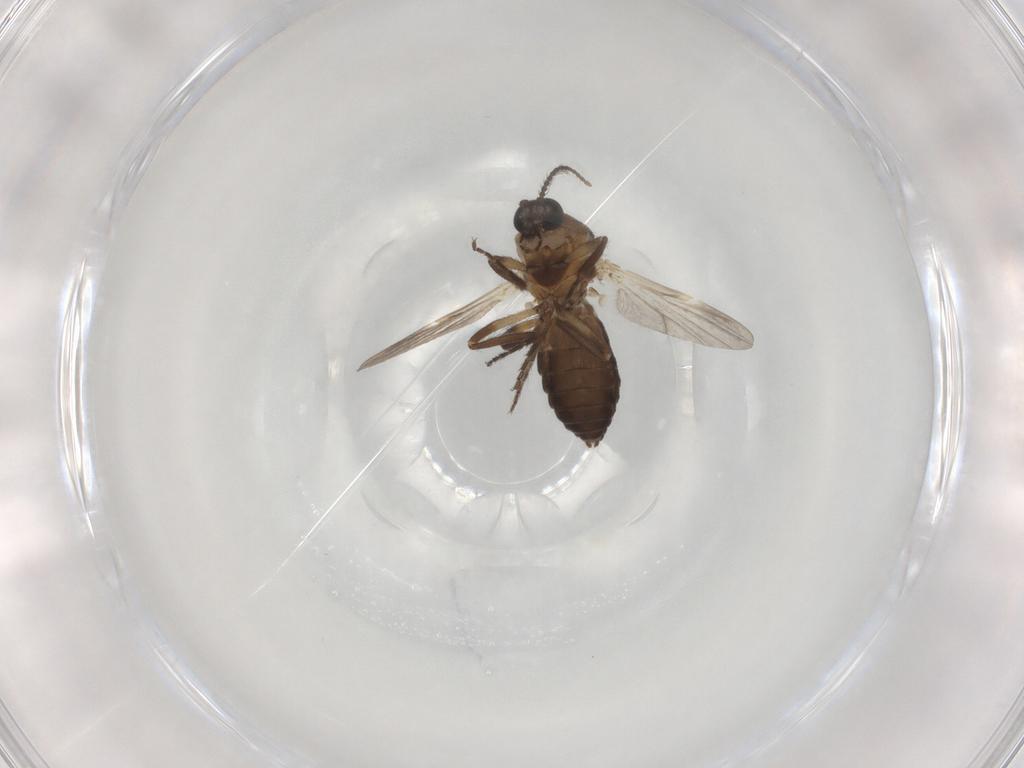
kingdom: Animalia
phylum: Arthropoda
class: Insecta
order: Diptera
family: Ceratopogonidae
